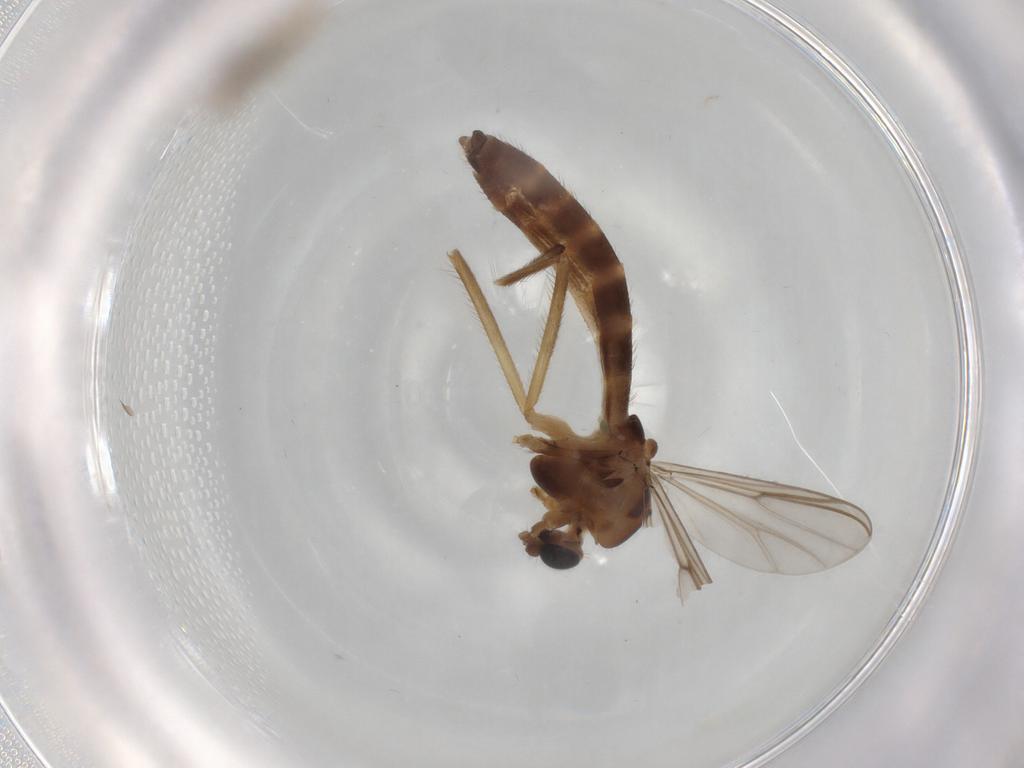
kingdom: Animalia
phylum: Arthropoda
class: Insecta
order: Diptera
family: Chironomidae
